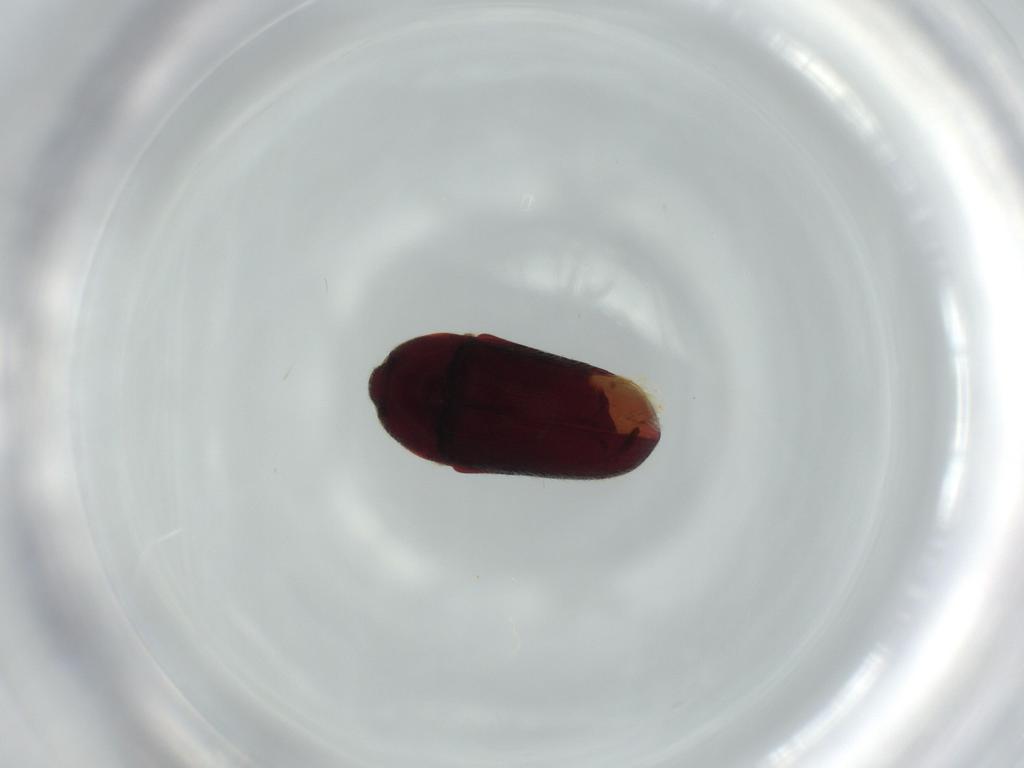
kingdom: Animalia
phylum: Arthropoda
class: Insecta
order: Coleoptera
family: Throscidae
